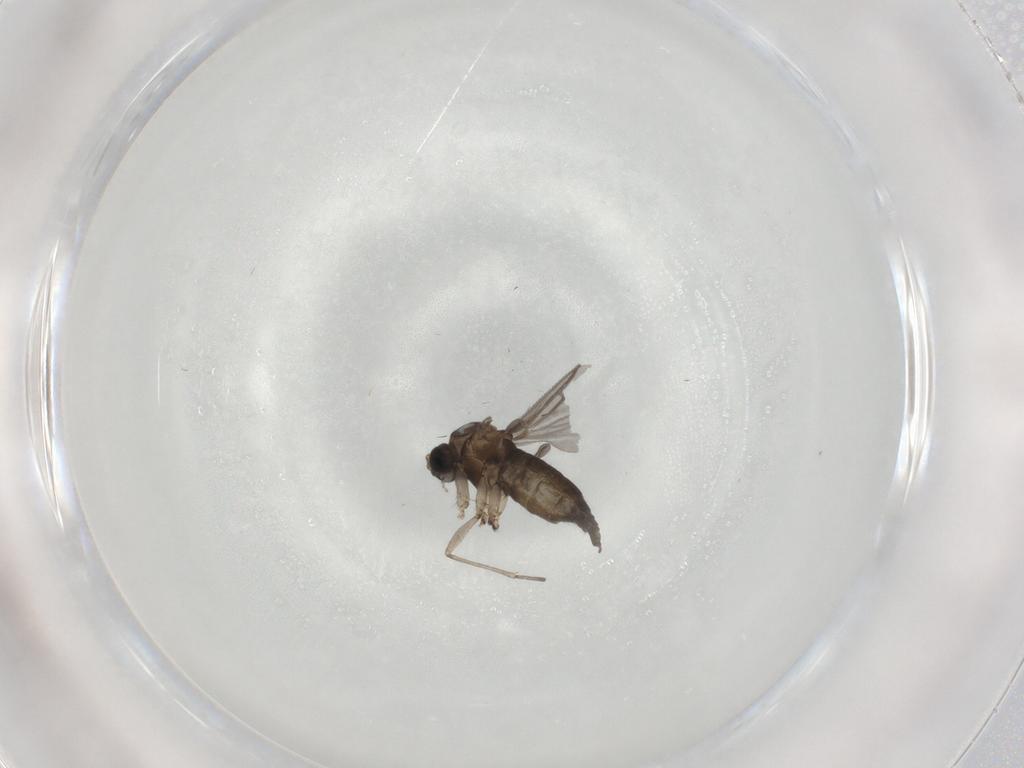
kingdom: Animalia
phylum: Arthropoda
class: Insecta
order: Diptera
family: Sciaridae
